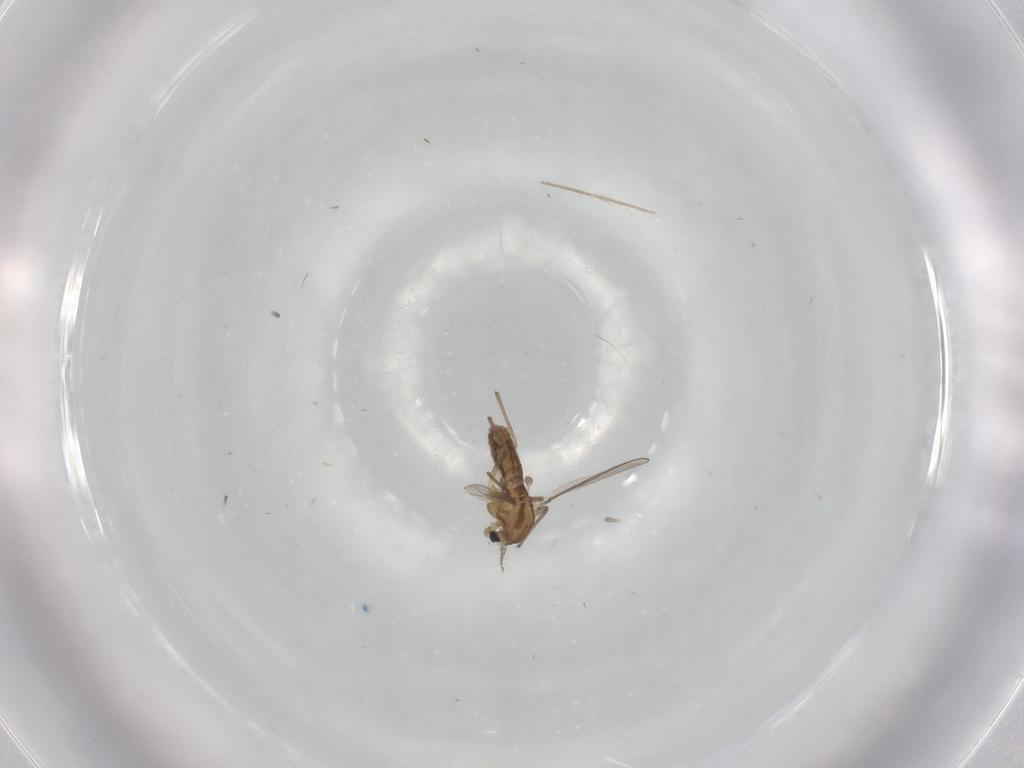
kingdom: Animalia
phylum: Arthropoda
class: Insecta
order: Diptera
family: Chironomidae
